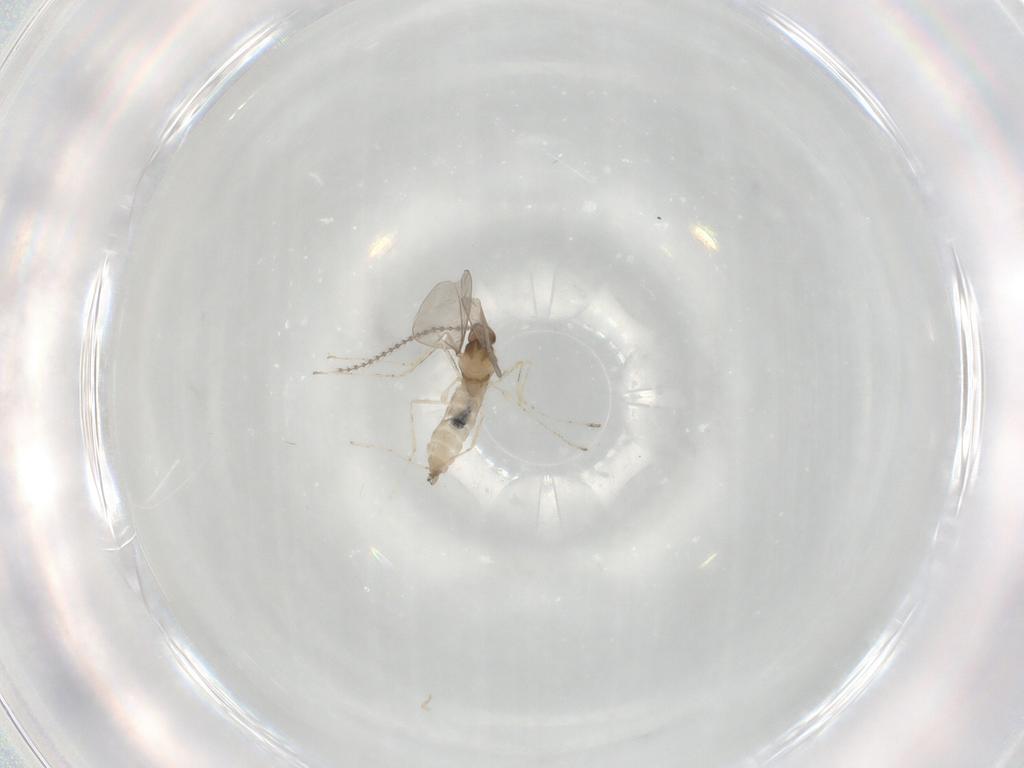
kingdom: Animalia
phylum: Arthropoda
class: Insecta
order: Diptera
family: Cecidomyiidae
